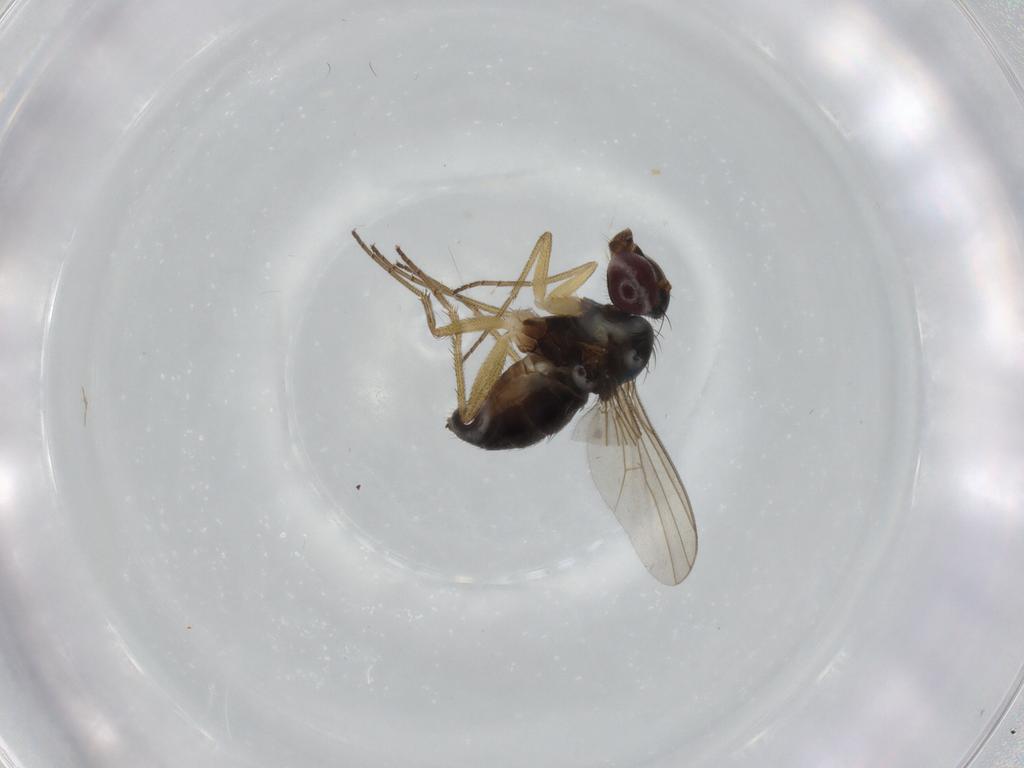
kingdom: Animalia
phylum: Arthropoda
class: Insecta
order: Diptera
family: Dolichopodidae
